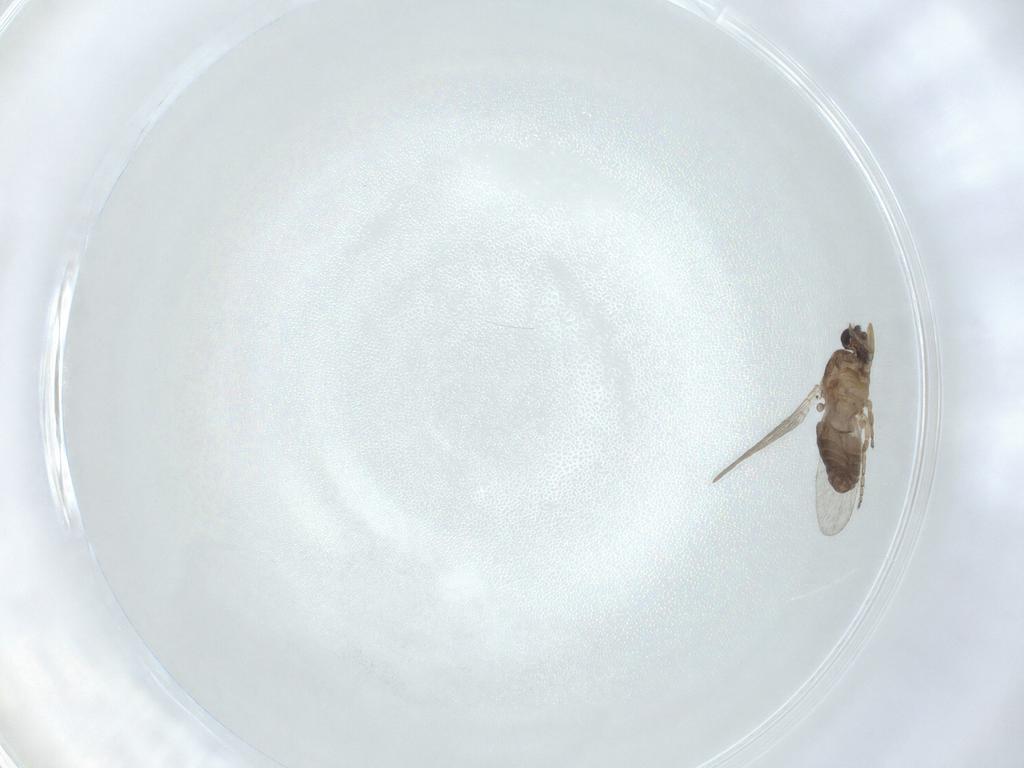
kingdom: Animalia
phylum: Arthropoda
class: Insecta
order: Diptera
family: Ceratopogonidae
